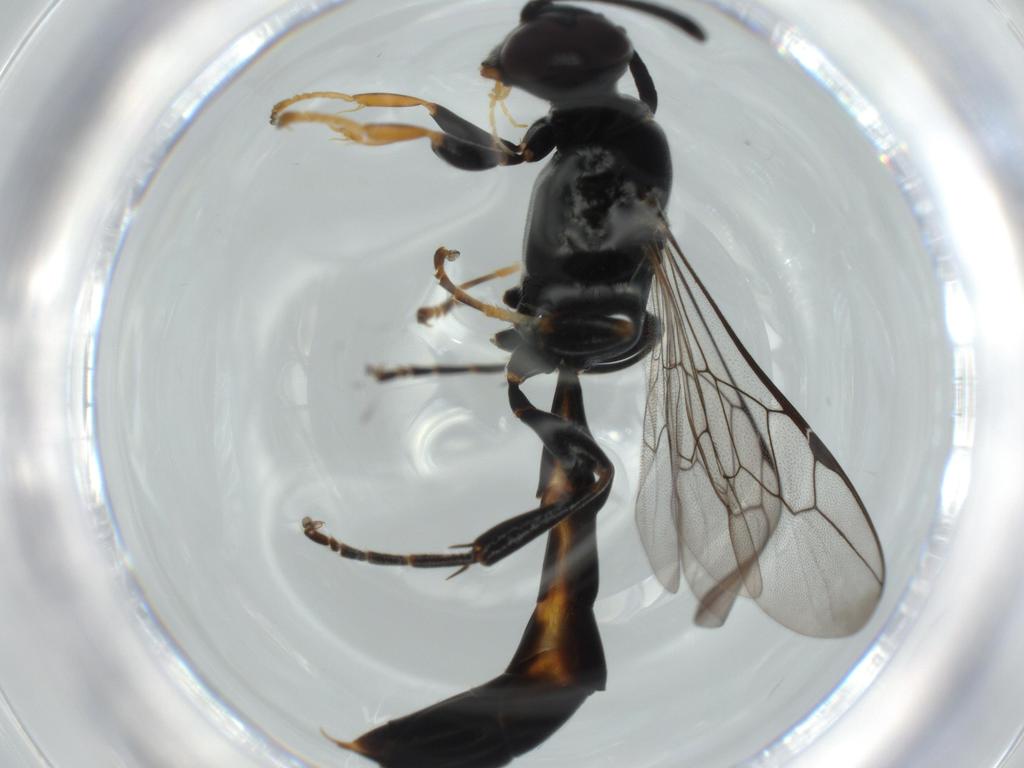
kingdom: Animalia
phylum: Arthropoda
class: Insecta
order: Hymenoptera
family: Crabronidae
